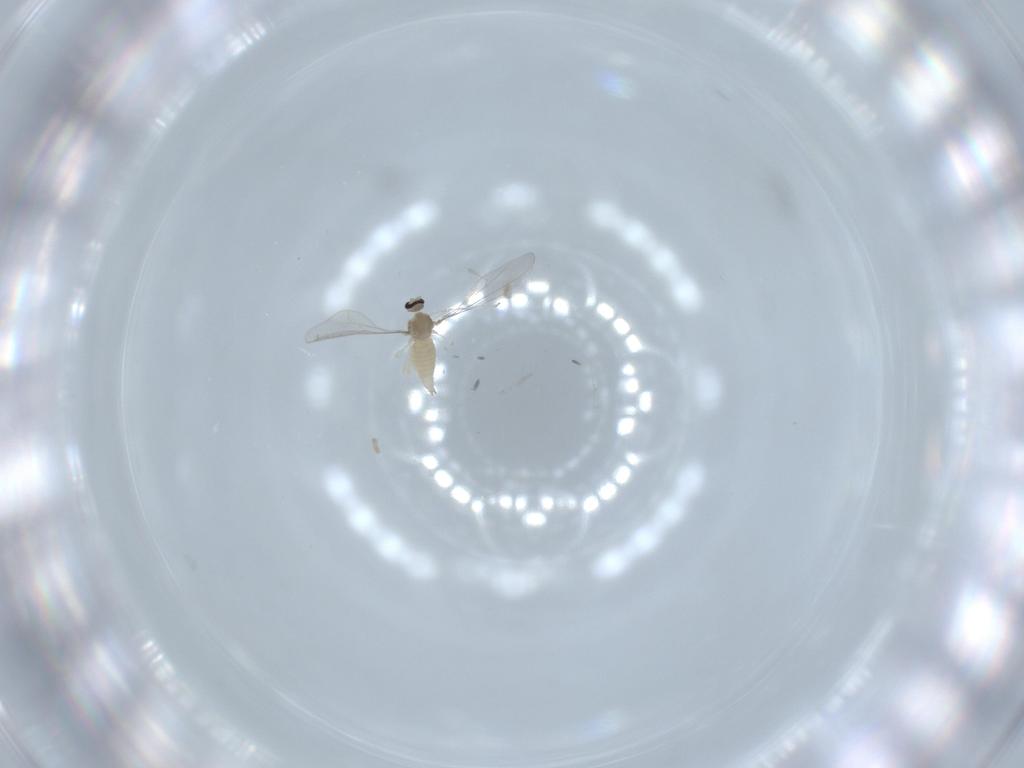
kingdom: Animalia
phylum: Arthropoda
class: Insecta
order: Diptera
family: Cecidomyiidae
